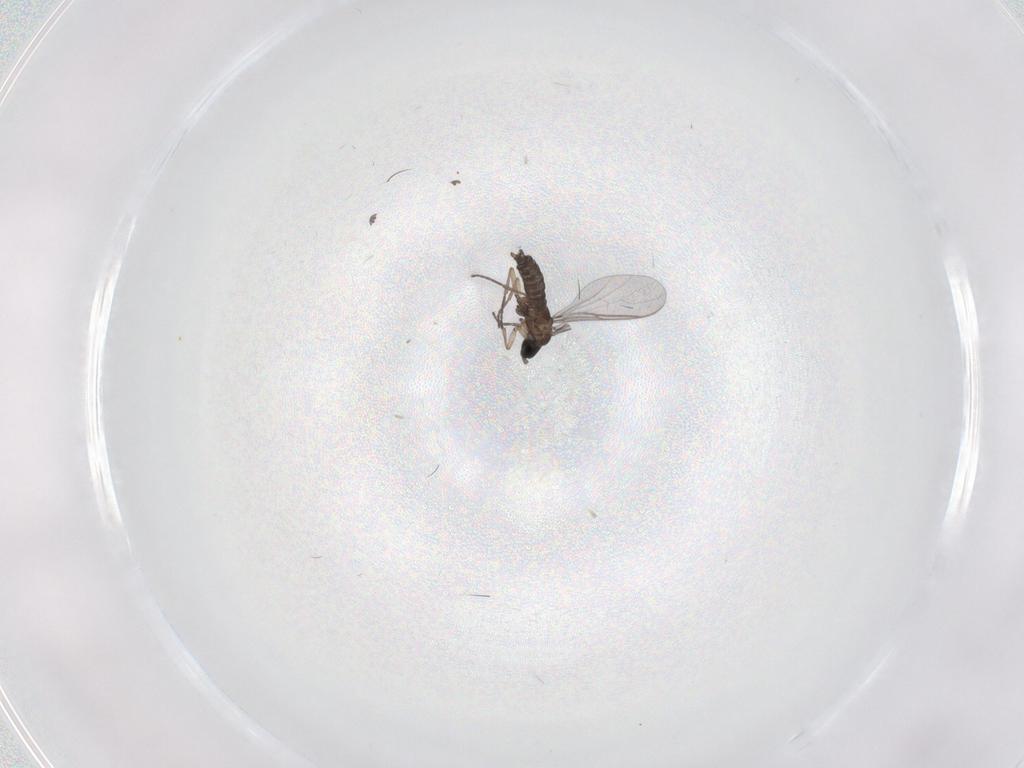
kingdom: Animalia
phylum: Arthropoda
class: Insecta
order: Diptera
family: Sciaridae
